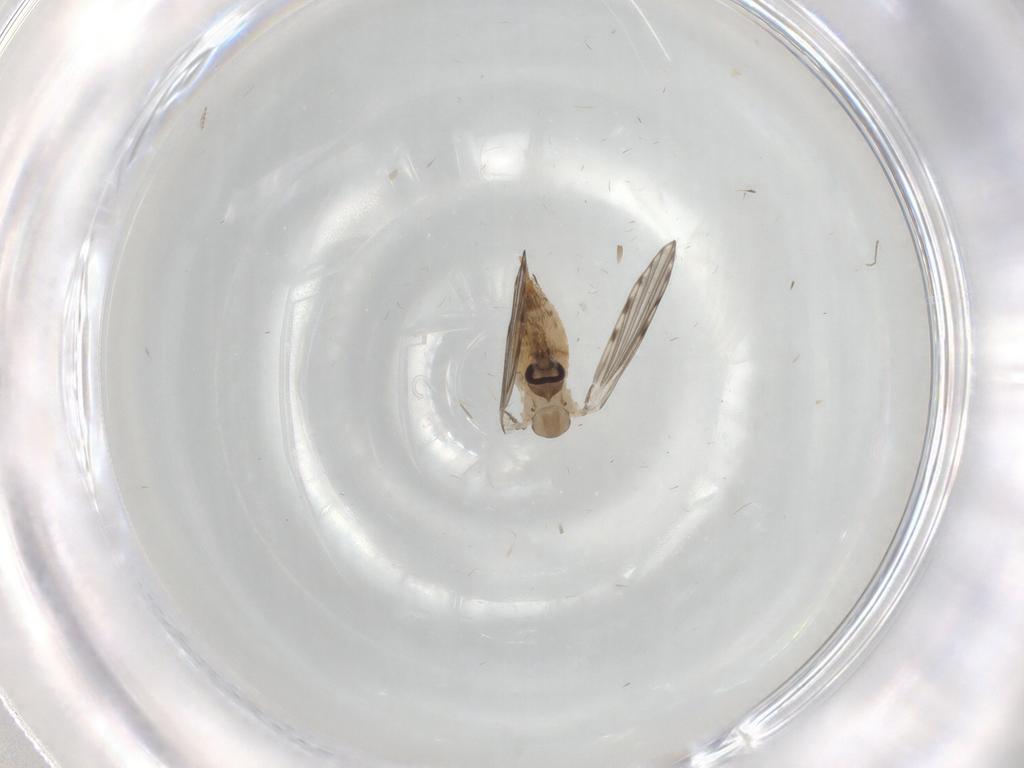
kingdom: Animalia
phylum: Arthropoda
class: Insecta
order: Diptera
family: Psychodidae
